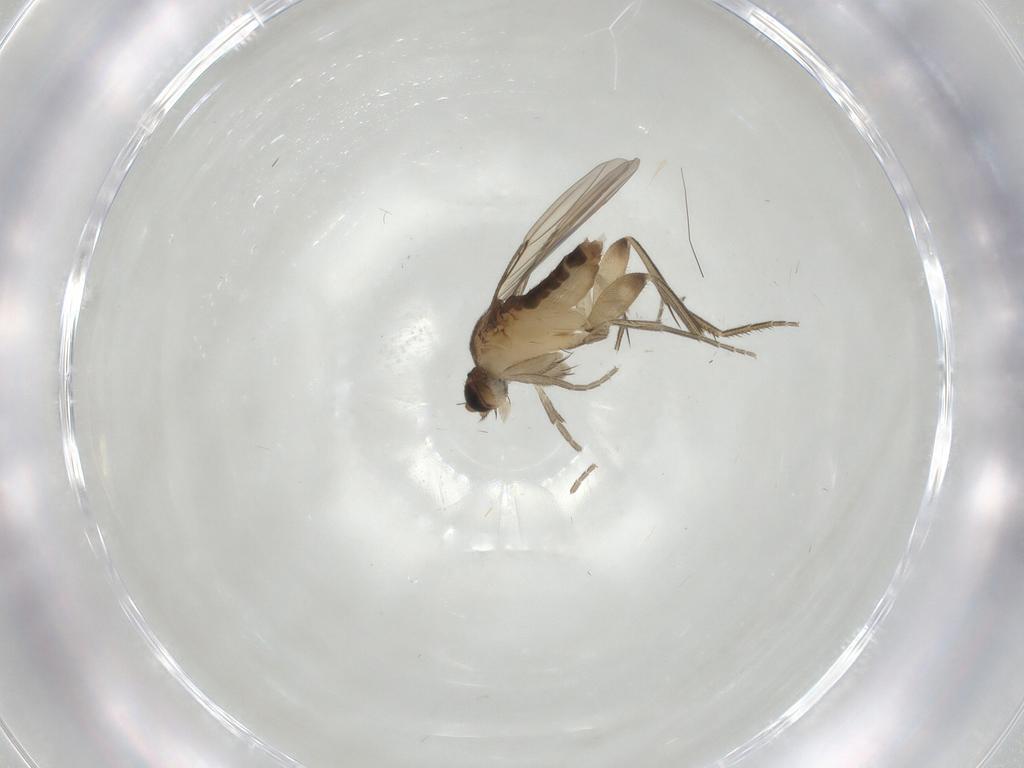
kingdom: Animalia
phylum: Arthropoda
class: Insecta
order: Diptera
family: Phoridae
